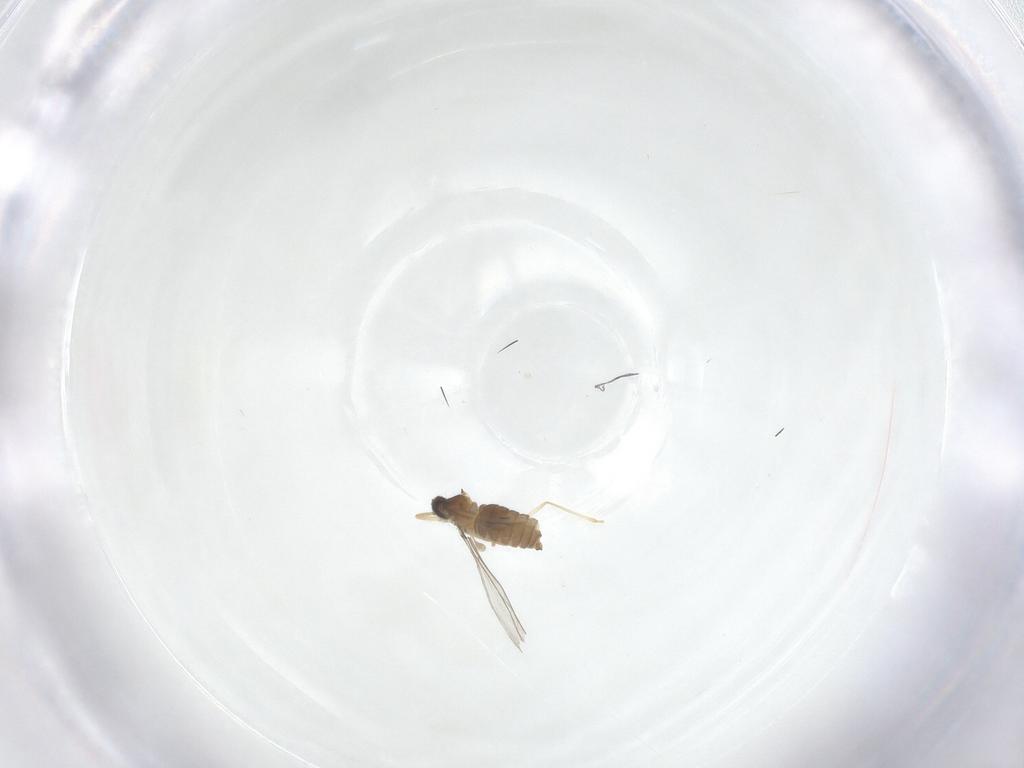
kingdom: Animalia
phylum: Arthropoda
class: Insecta
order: Diptera
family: Cecidomyiidae
